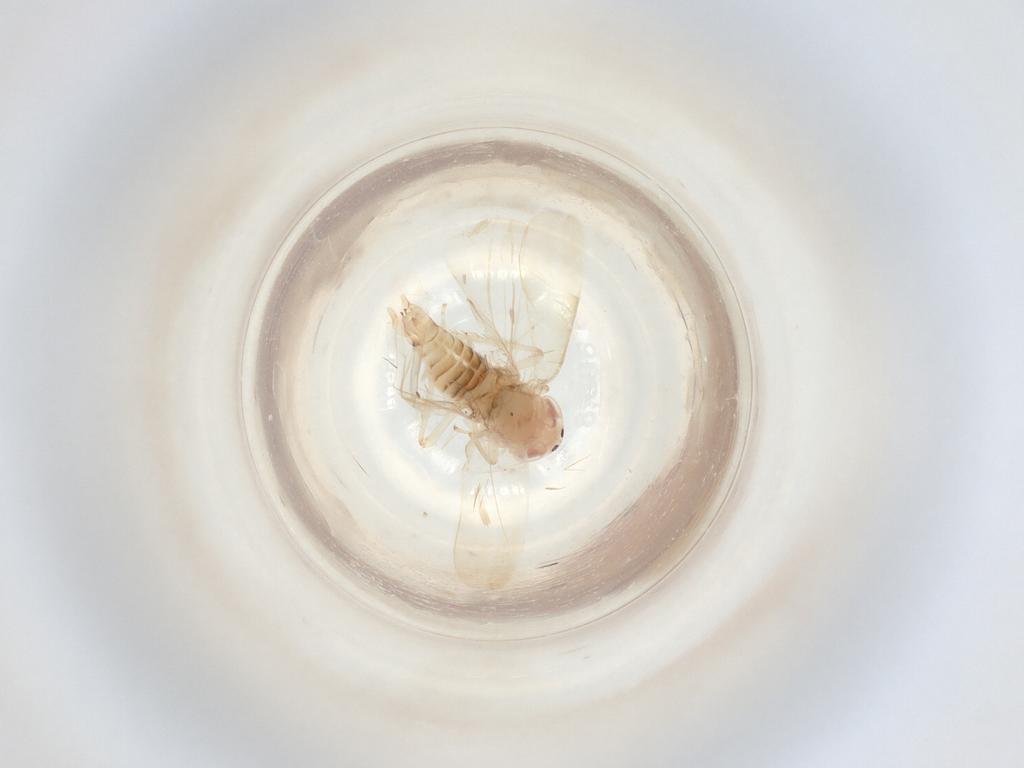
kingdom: Animalia
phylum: Arthropoda
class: Insecta
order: Hemiptera
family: Cicadellidae
